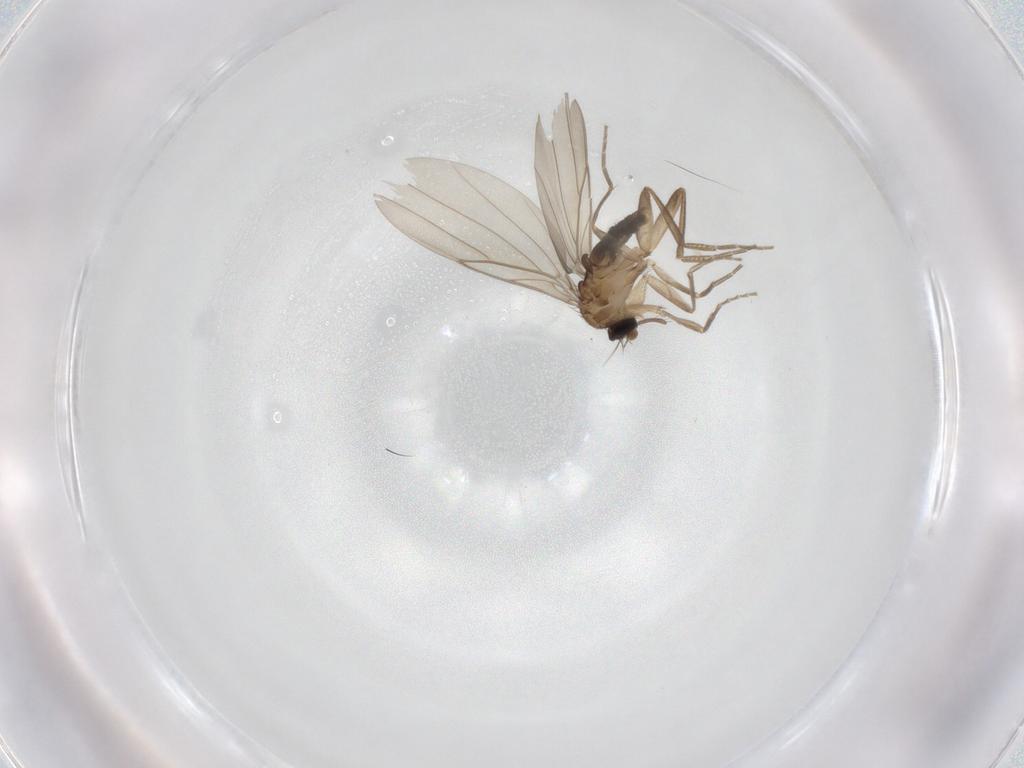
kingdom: Animalia
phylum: Arthropoda
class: Insecta
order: Diptera
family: Phoridae
